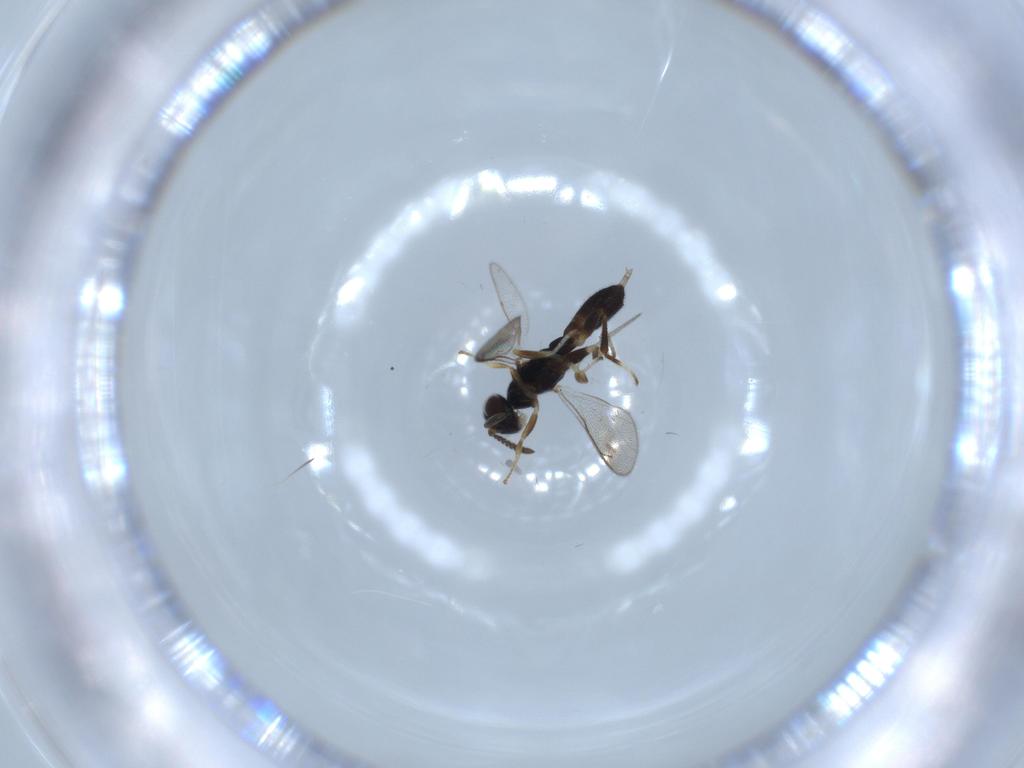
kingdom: Animalia
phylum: Arthropoda
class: Insecta
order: Hymenoptera
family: Cleonyminae
